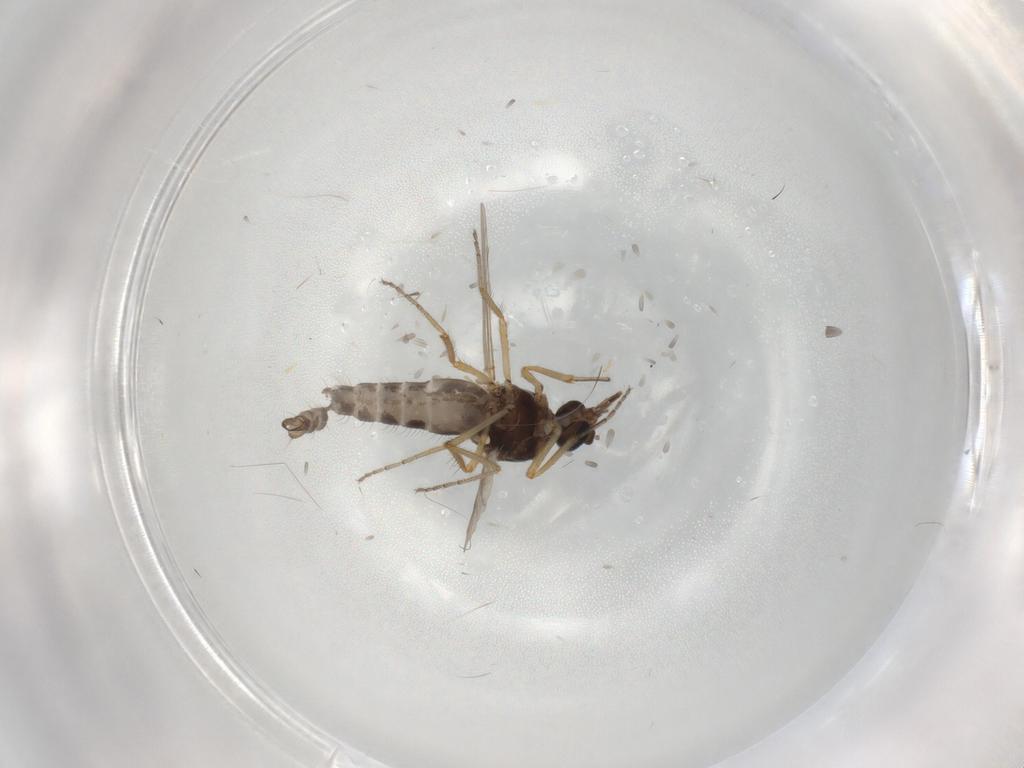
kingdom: Animalia
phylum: Arthropoda
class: Insecta
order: Diptera
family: Ceratopogonidae
